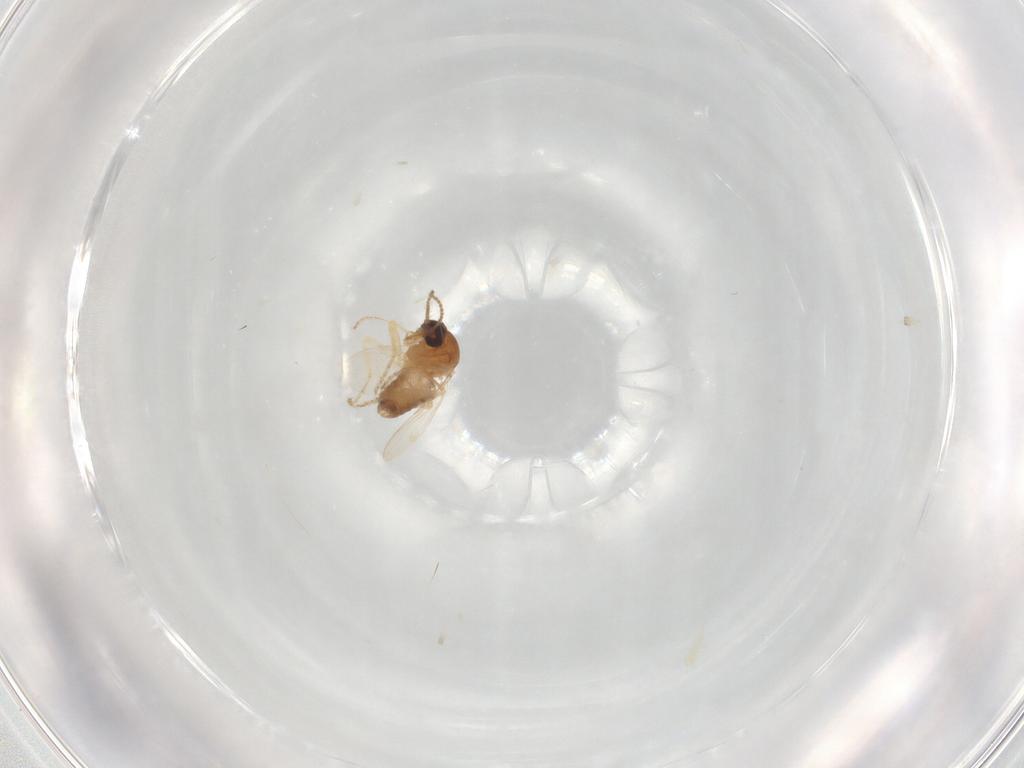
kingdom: Animalia
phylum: Arthropoda
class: Insecta
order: Diptera
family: Ceratopogonidae
